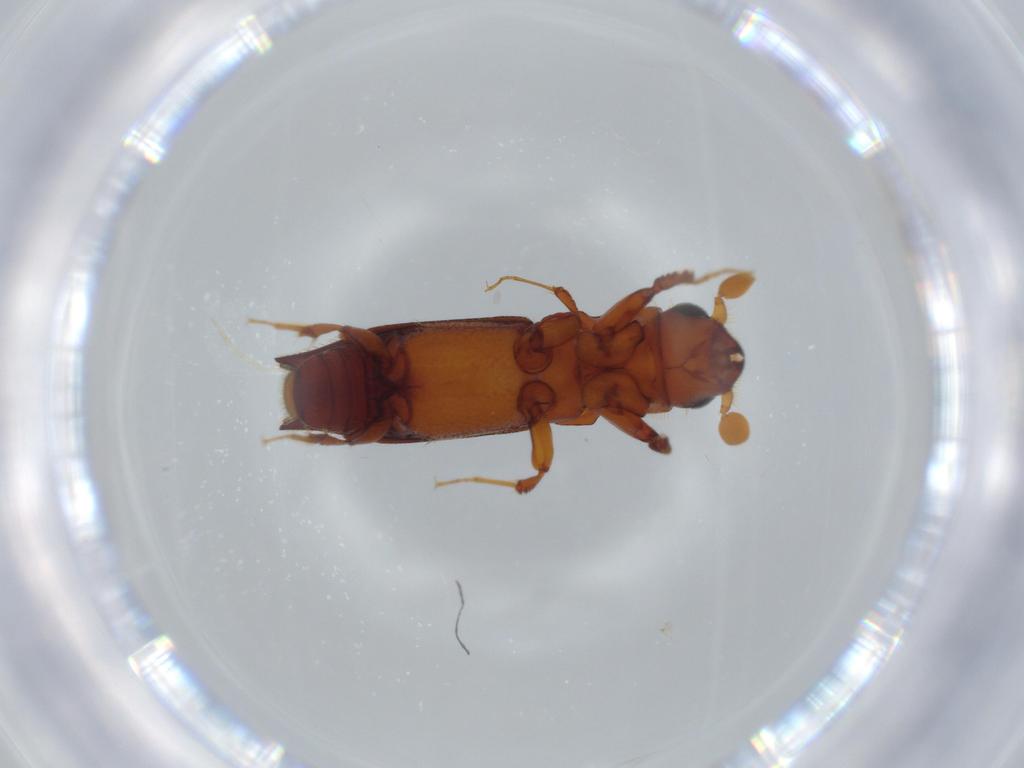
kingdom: Animalia
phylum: Arthropoda
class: Insecta
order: Coleoptera
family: Curculionidae
